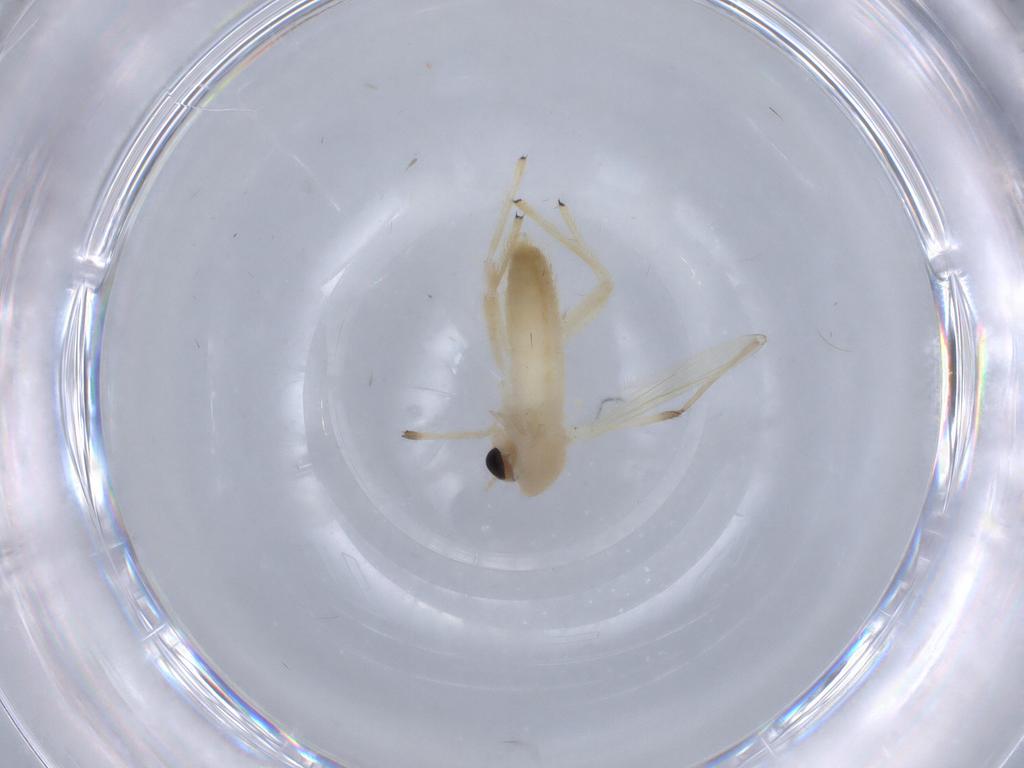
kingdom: Animalia
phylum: Arthropoda
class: Insecta
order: Diptera
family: Chironomidae
